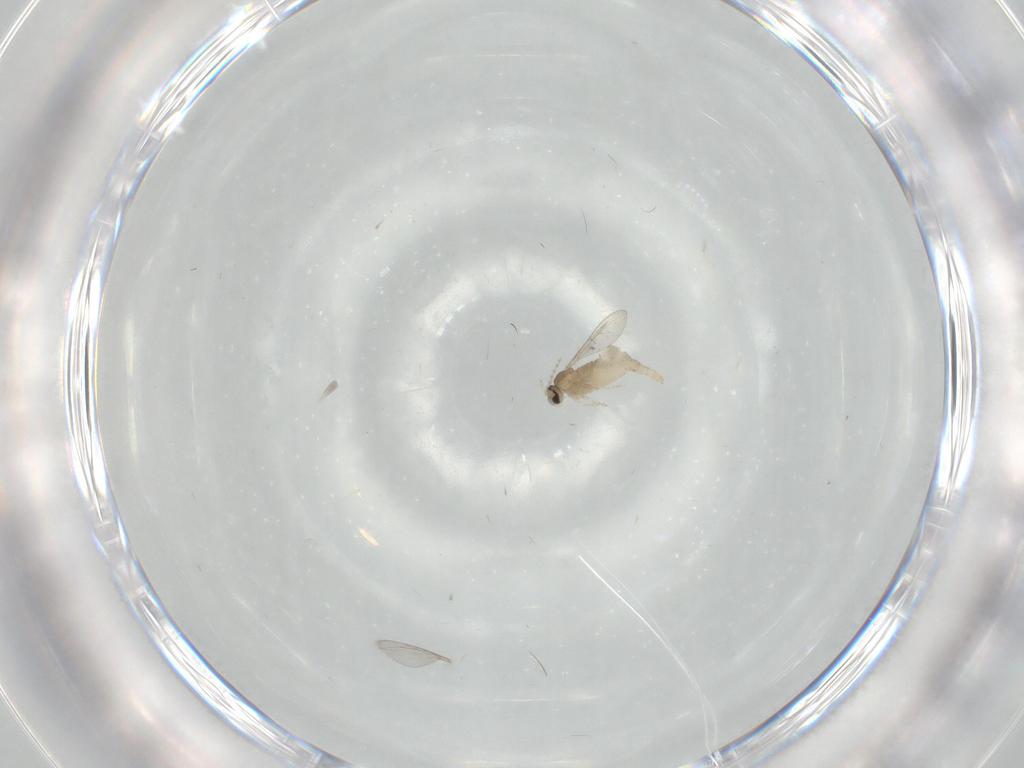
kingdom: Animalia
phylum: Arthropoda
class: Insecta
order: Diptera
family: Cecidomyiidae
